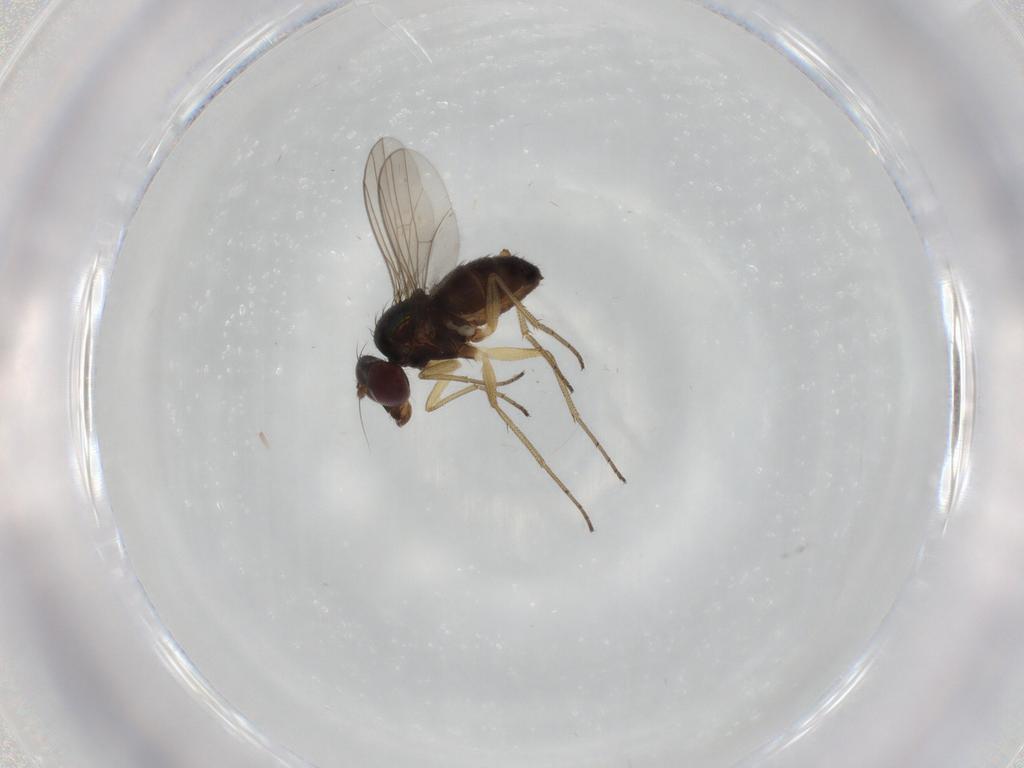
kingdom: Animalia
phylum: Arthropoda
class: Insecta
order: Diptera
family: Dolichopodidae
